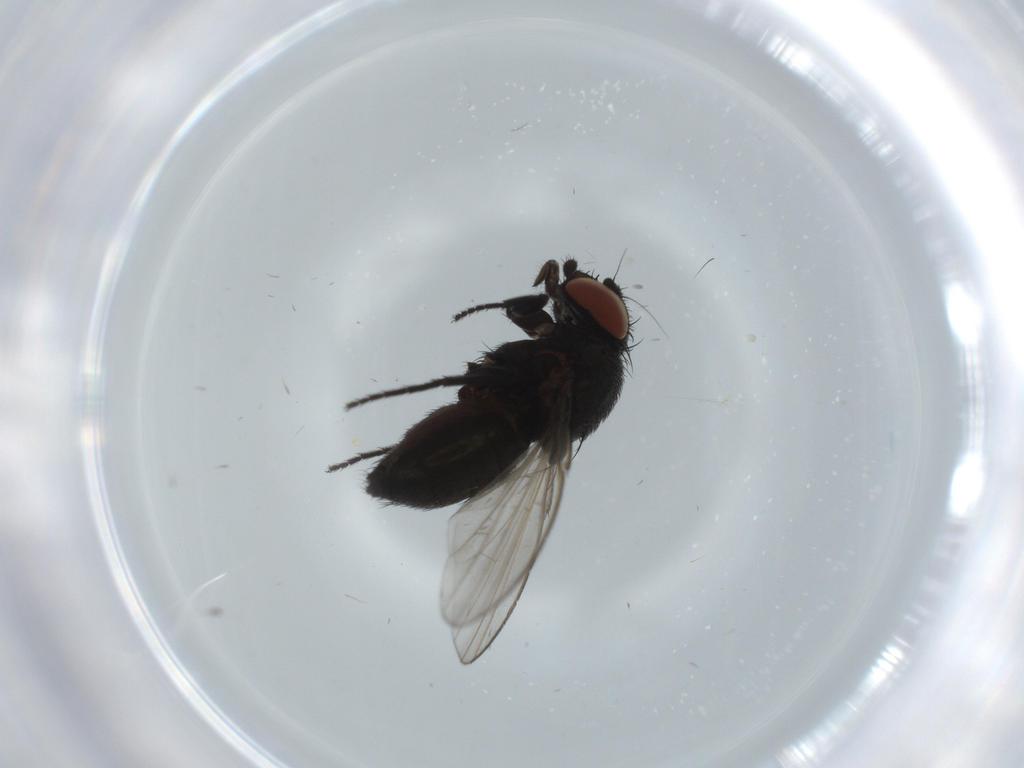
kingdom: Animalia
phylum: Arthropoda
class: Insecta
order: Diptera
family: Milichiidae
